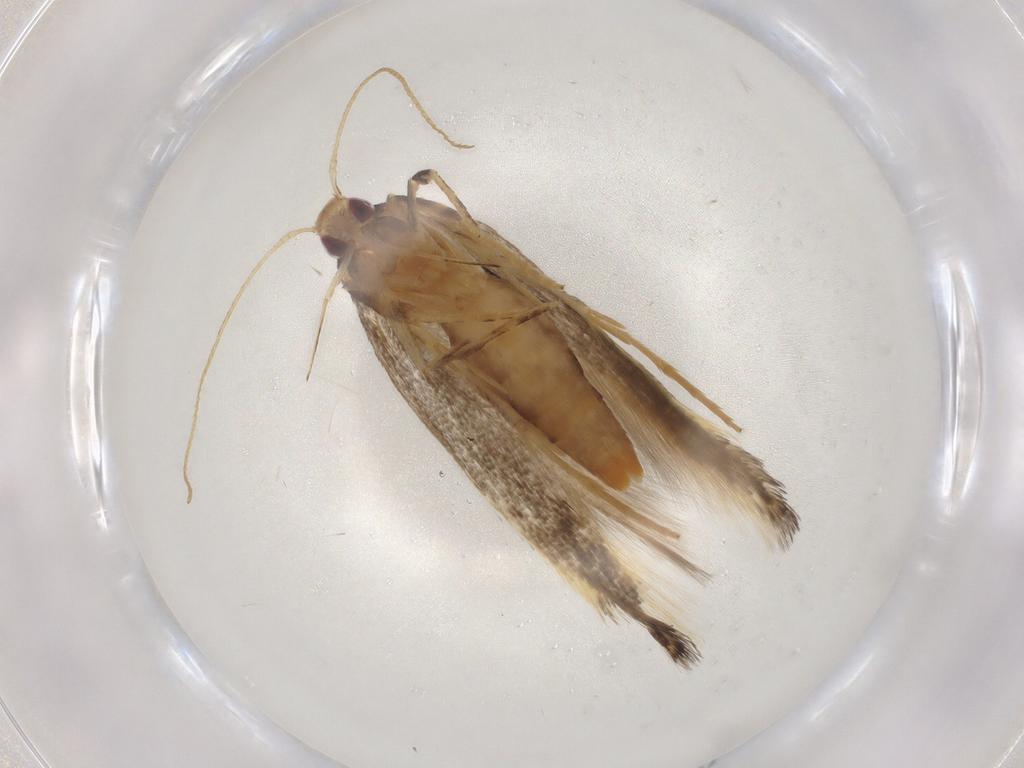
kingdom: Animalia
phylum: Arthropoda
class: Insecta
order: Lepidoptera
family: Cosmopterigidae
